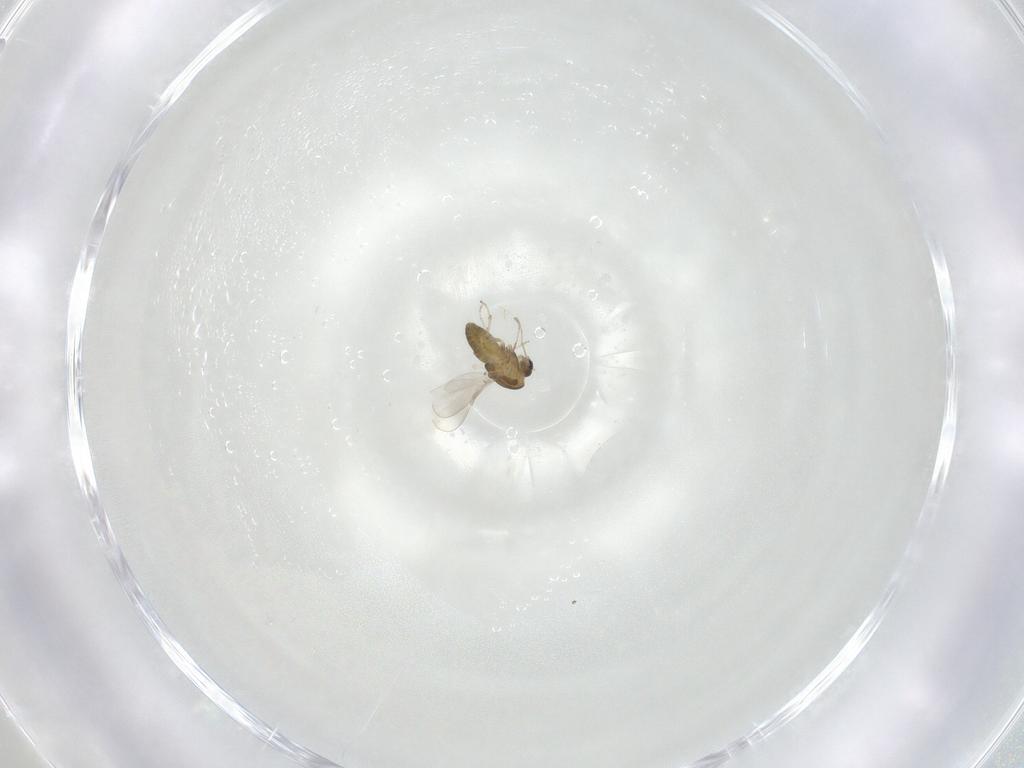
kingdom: Animalia
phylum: Arthropoda
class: Insecta
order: Diptera
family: Chironomidae
